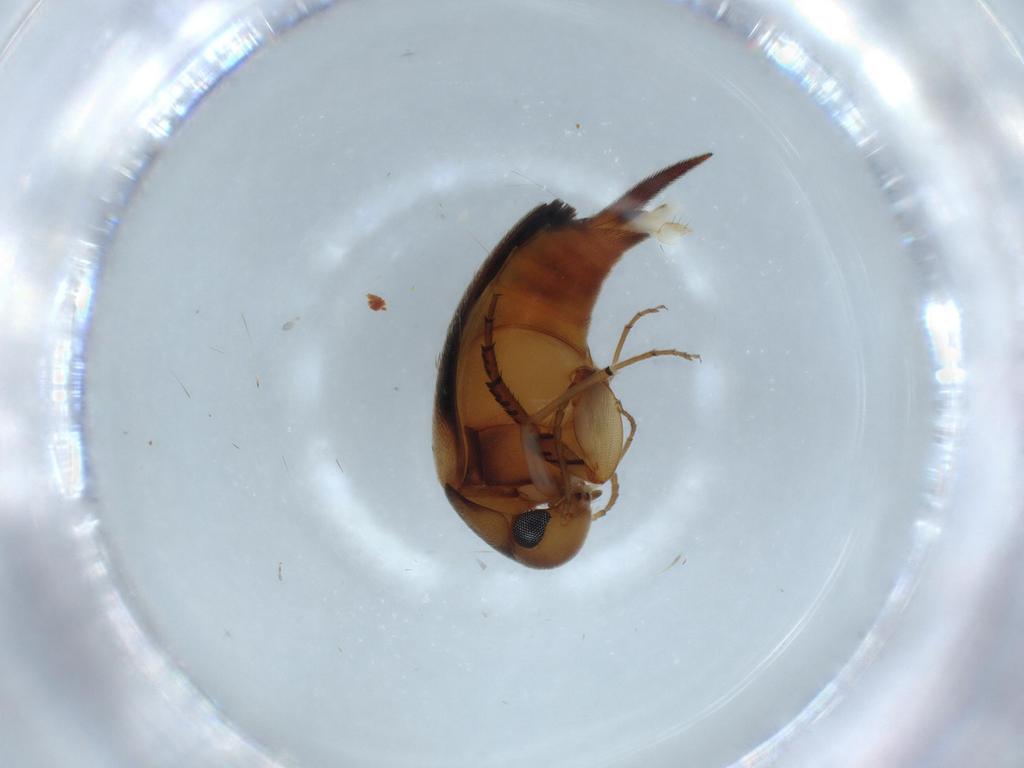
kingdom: Animalia
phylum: Arthropoda
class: Insecta
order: Coleoptera
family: Mordellidae
